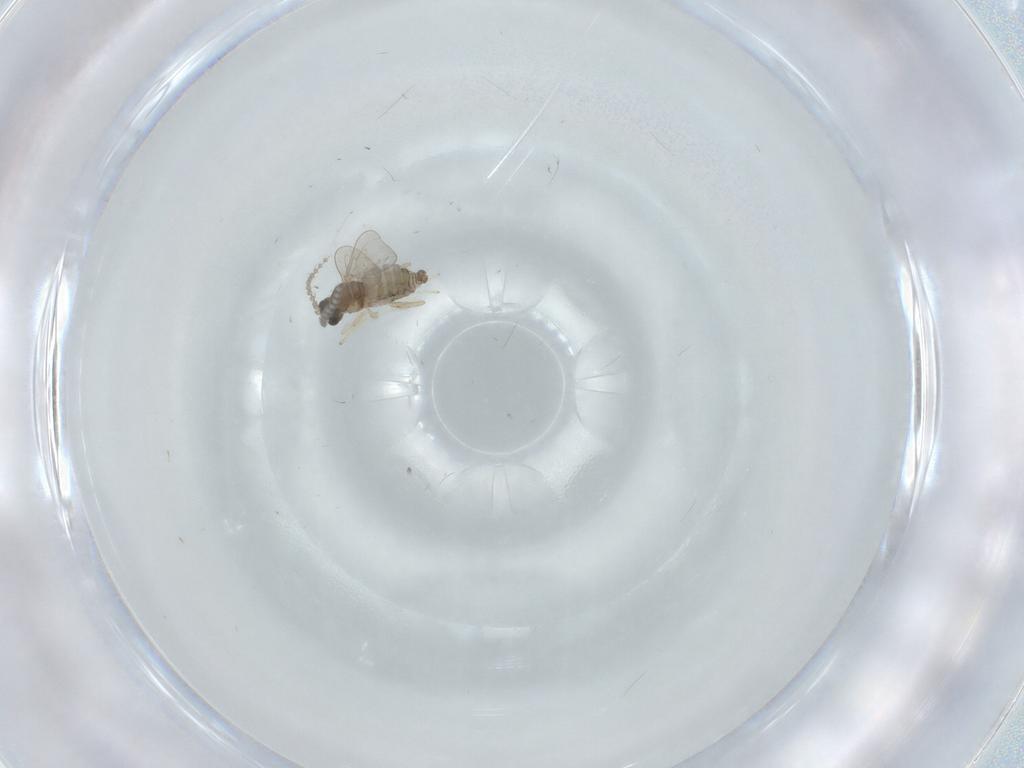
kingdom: Animalia
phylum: Arthropoda
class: Insecta
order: Diptera
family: Cecidomyiidae
